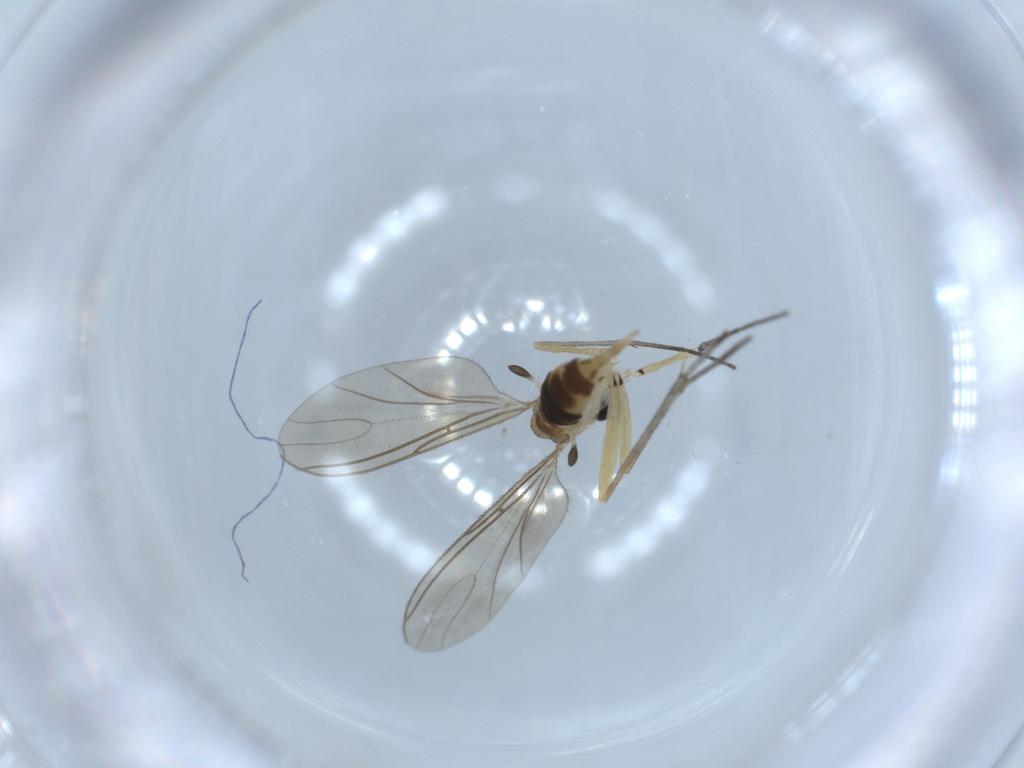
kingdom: Animalia
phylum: Arthropoda
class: Insecta
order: Diptera
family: Sciaridae
